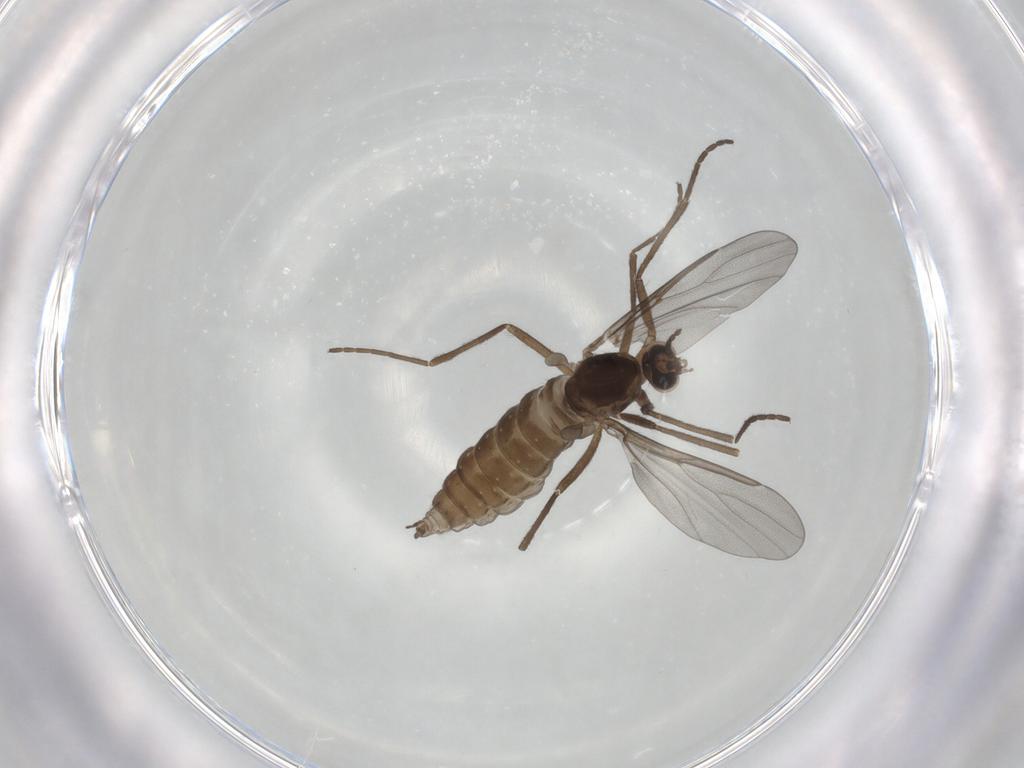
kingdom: Animalia
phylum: Arthropoda
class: Insecta
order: Diptera
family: Cecidomyiidae
